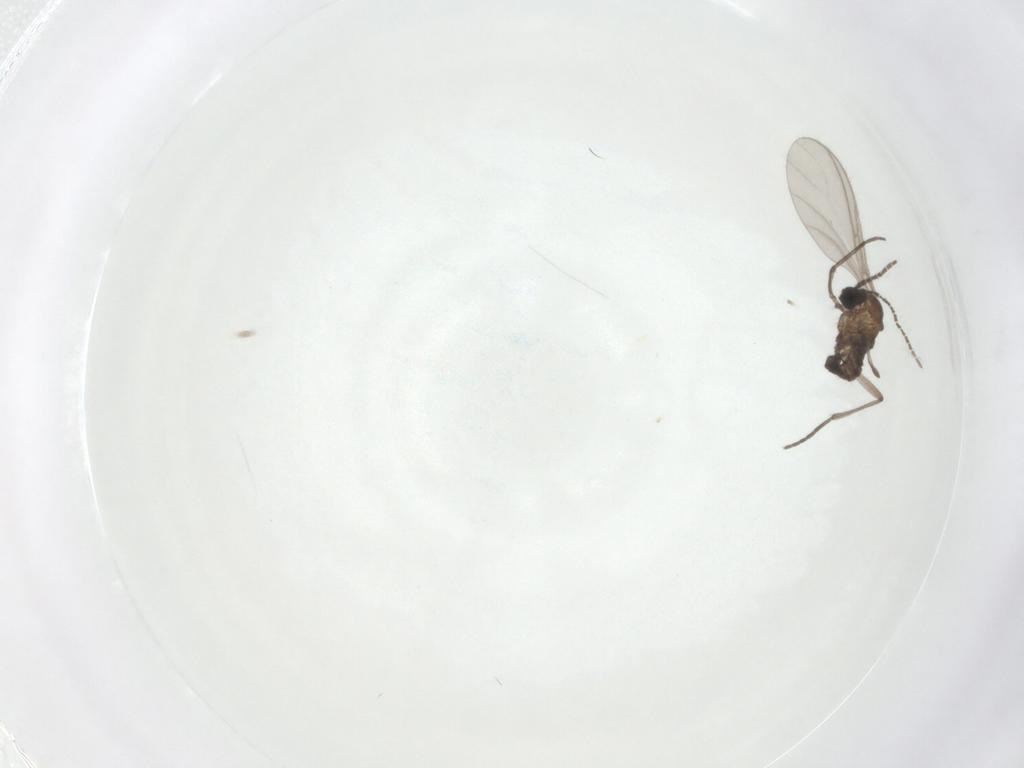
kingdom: Animalia
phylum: Arthropoda
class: Insecta
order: Diptera
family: Sciaridae
